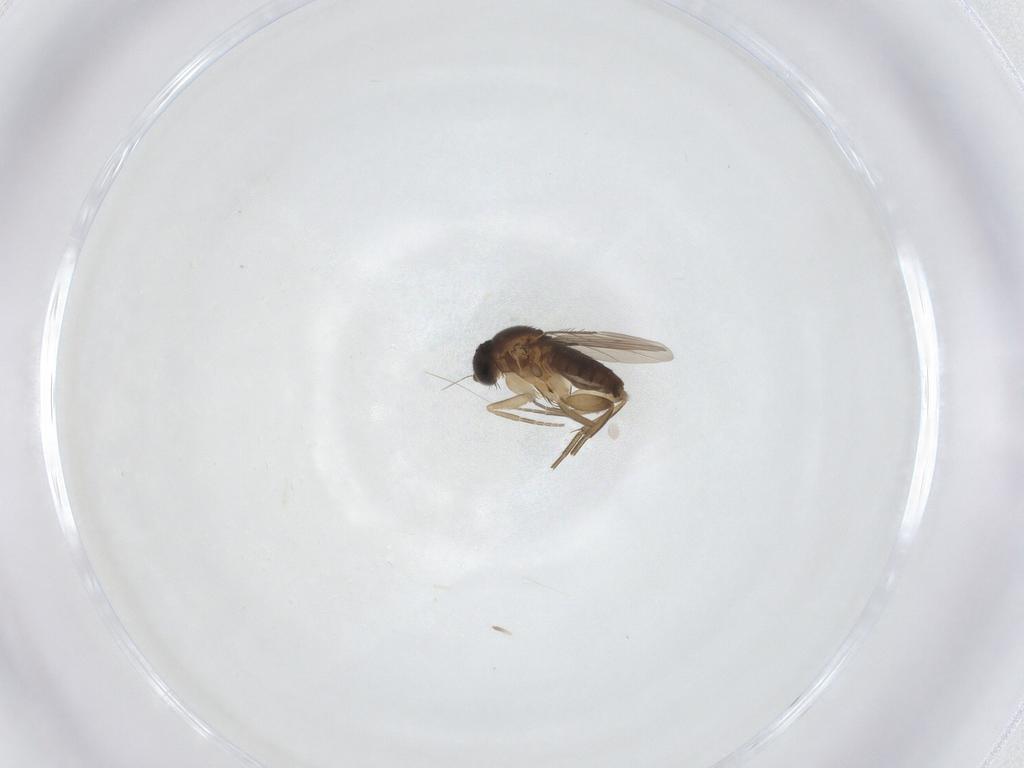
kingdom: Animalia
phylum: Arthropoda
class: Insecta
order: Diptera
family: Phoridae
